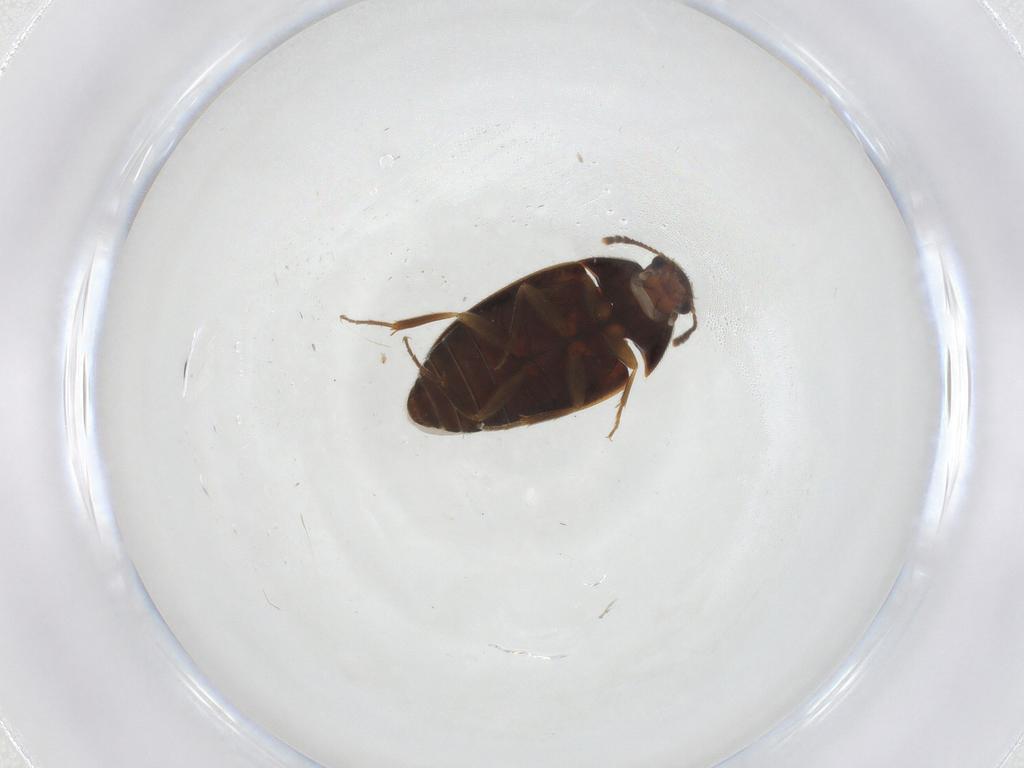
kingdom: Animalia
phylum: Arthropoda
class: Insecta
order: Coleoptera
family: Mycetophagidae
